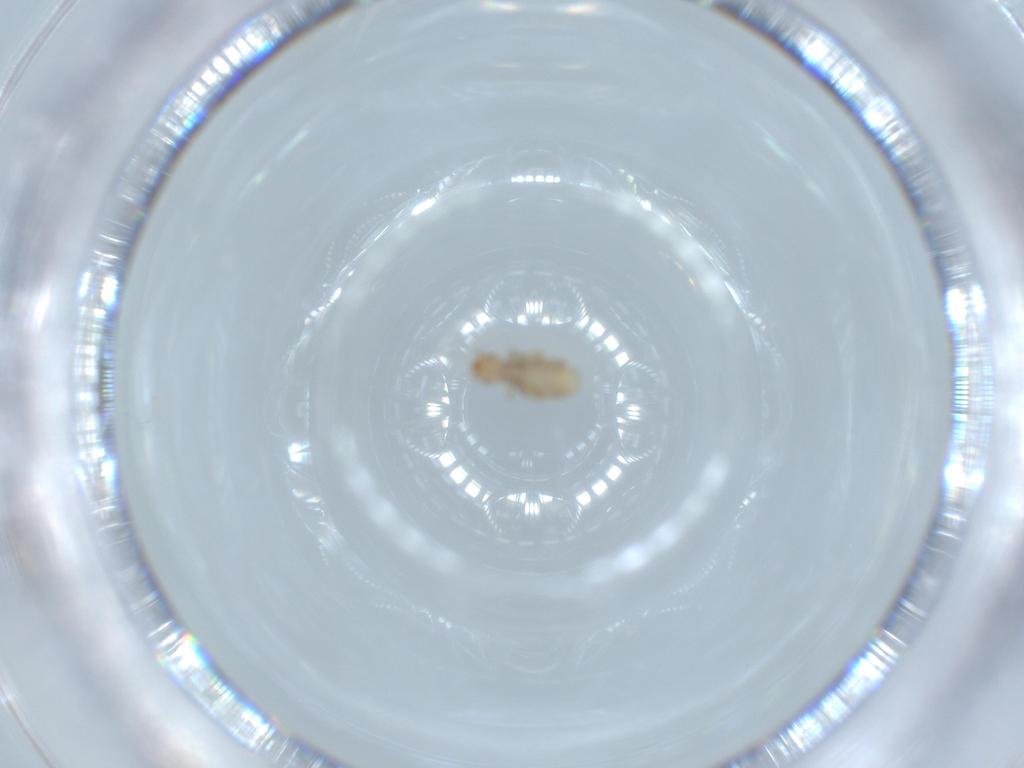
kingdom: Animalia
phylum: Arthropoda
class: Insecta
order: Psocodea
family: Liposcelididae
